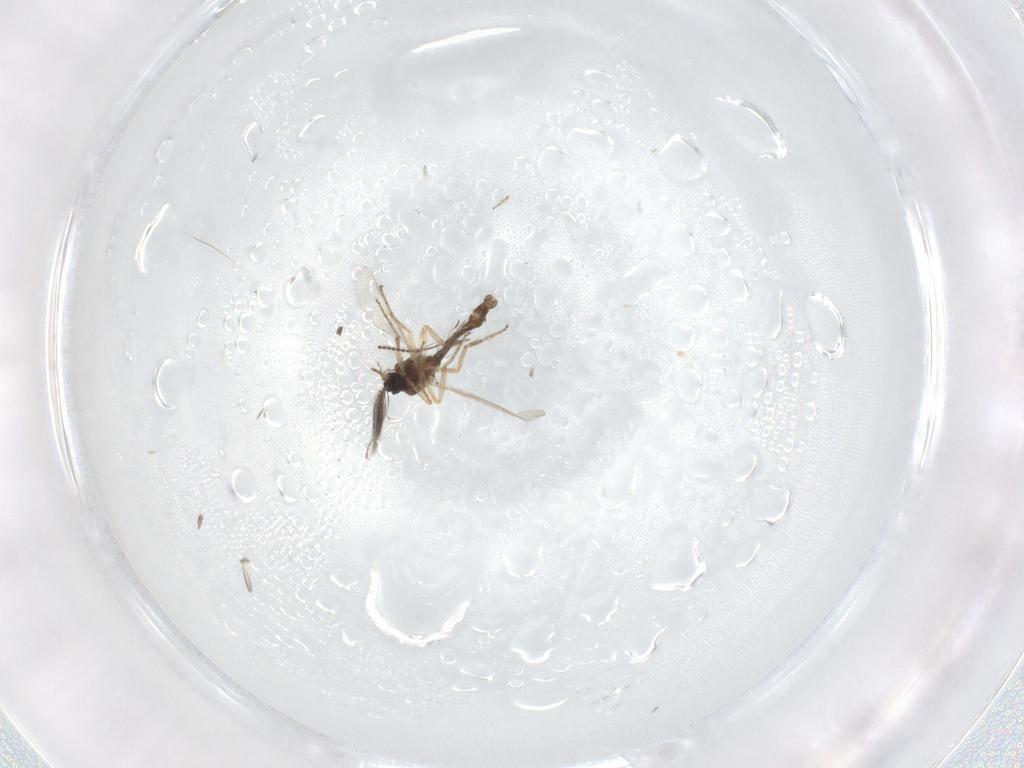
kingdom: Animalia
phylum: Arthropoda
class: Insecta
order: Diptera
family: Ceratopogonidae
